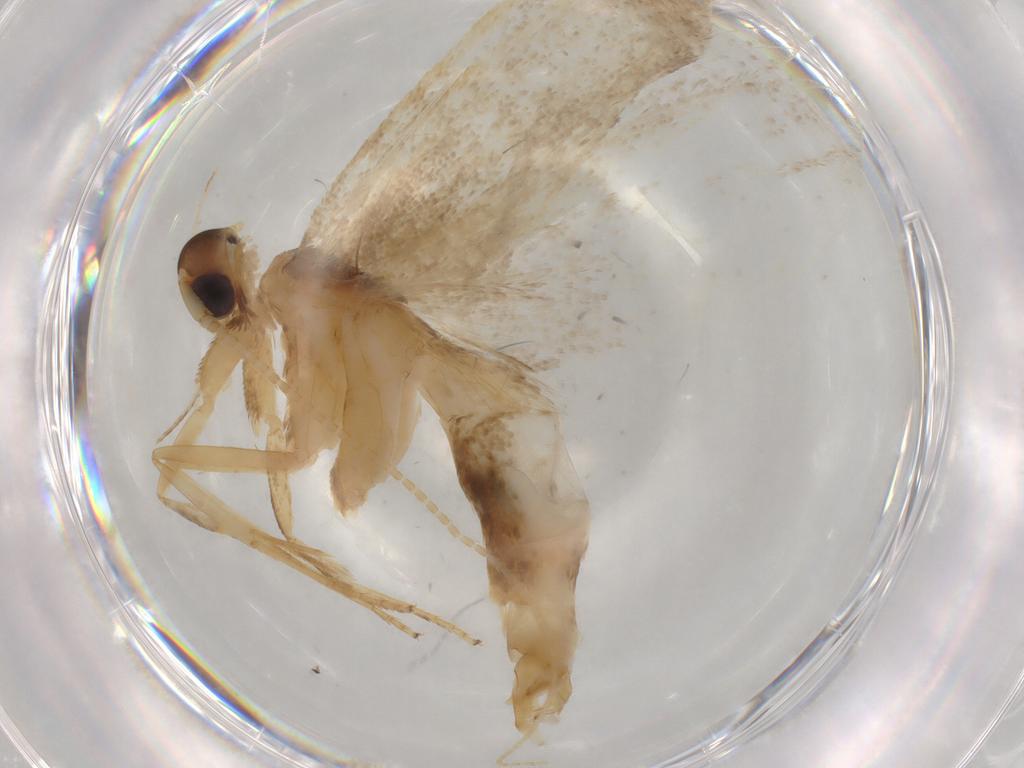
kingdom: Animalia
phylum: Arthropoda
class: Insecta
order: Lepidoptera
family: Lecithoceridae
